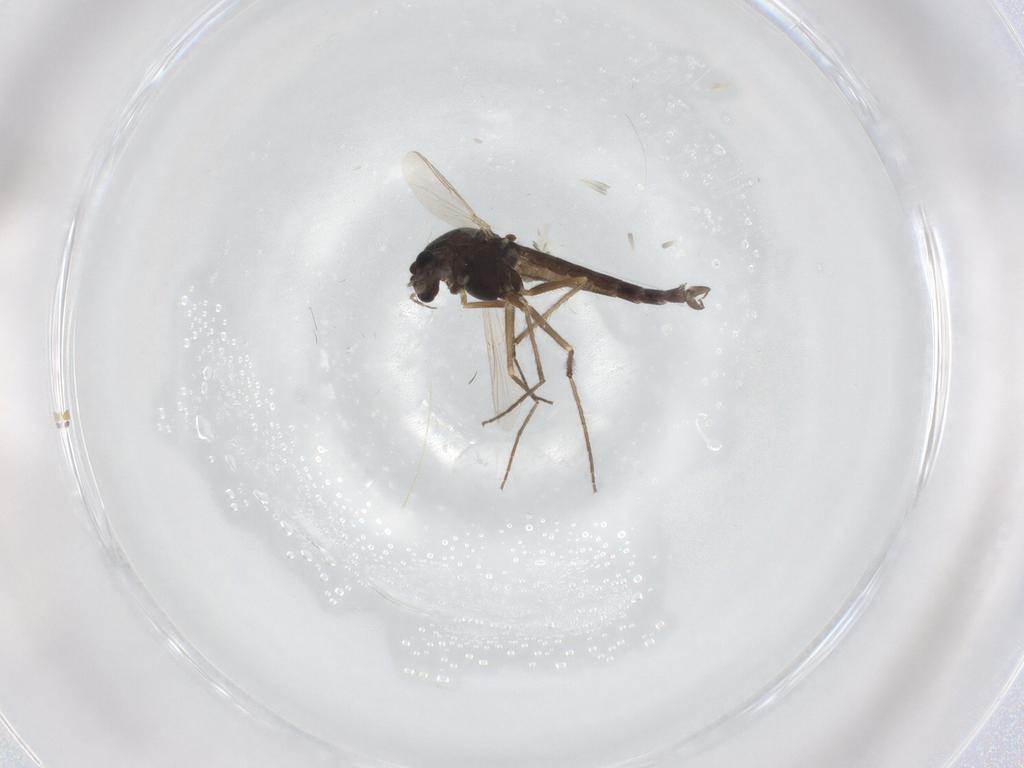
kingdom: Animalia
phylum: Arthropoda
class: Insecta
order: Diptera
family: Chironomidae
